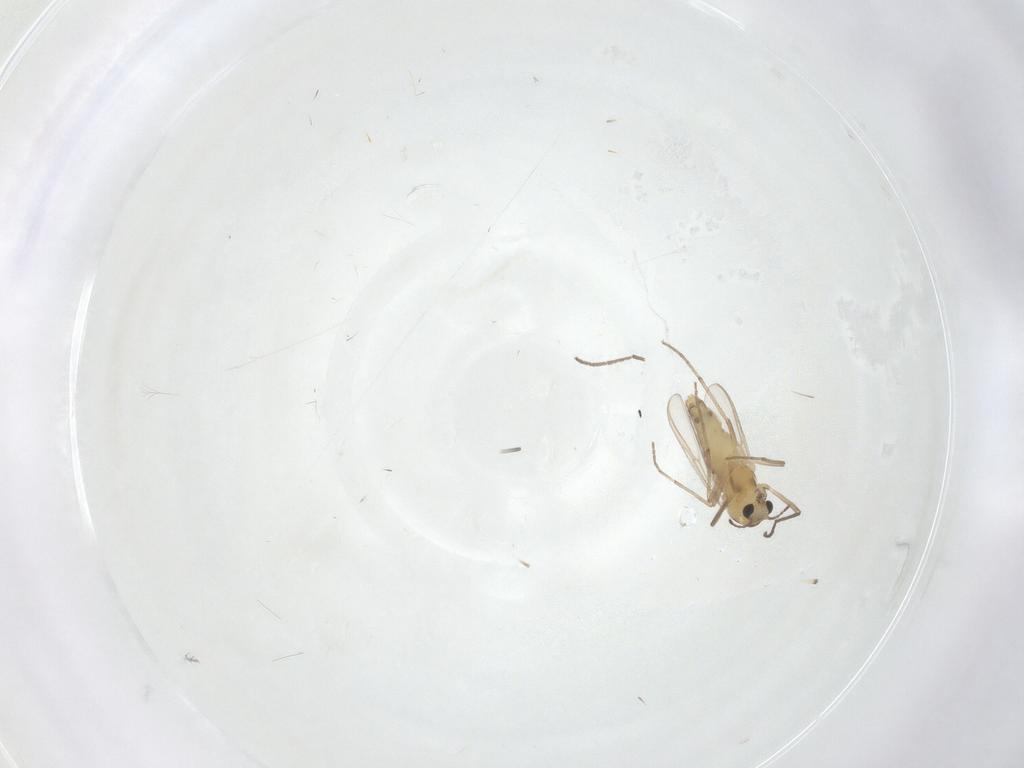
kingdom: Animalia
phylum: Arthropoda
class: Insecta
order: Diptera
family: Chironomidae
